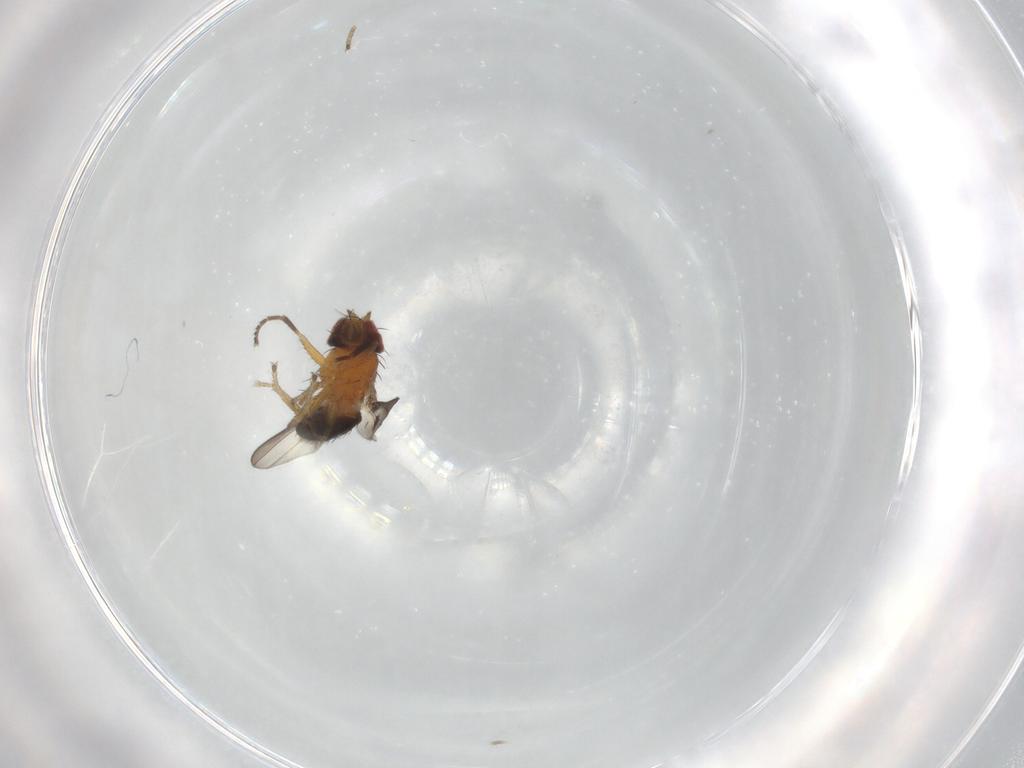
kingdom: Animalia
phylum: Arthropoda
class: Insecta
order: Diptera
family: Ephydridae
